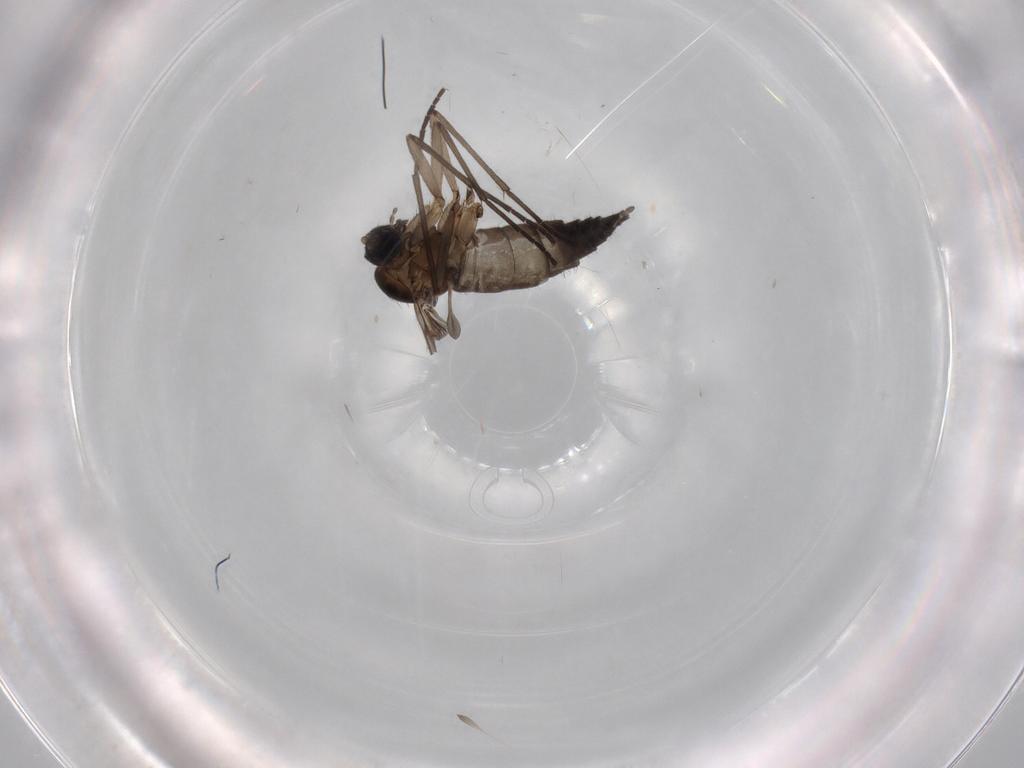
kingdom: Animalia
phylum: Arthropoda
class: Insecta
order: Diptera
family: Sciaridae
